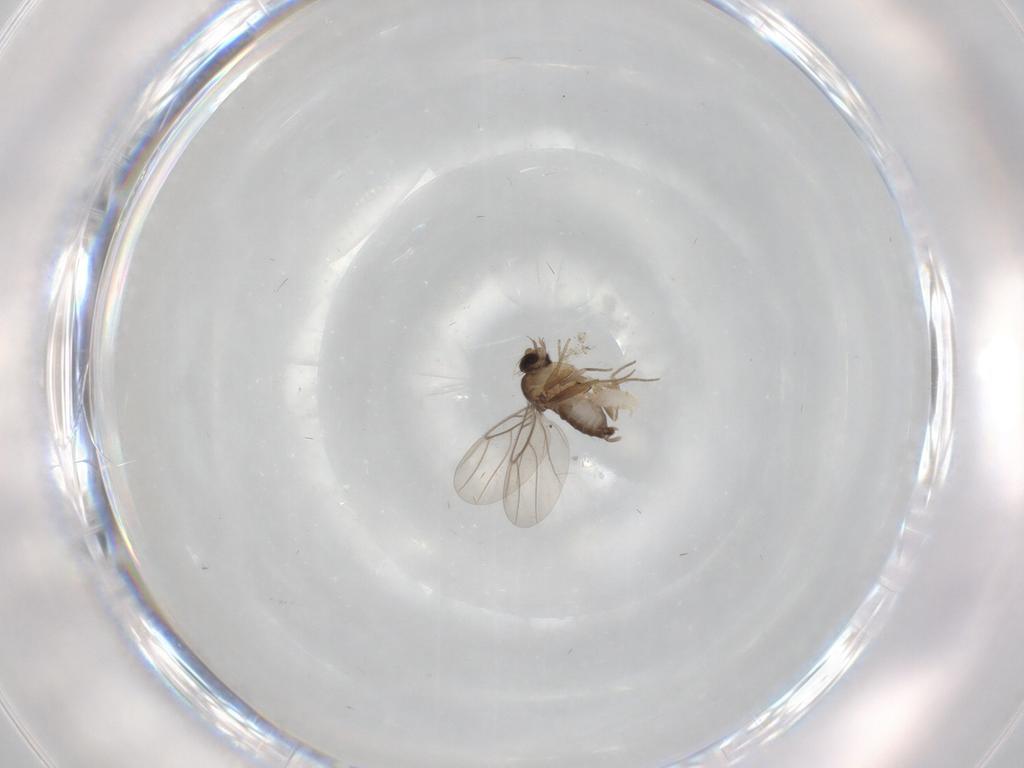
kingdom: Animalia
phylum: Arthropoda
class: Insecta
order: Diptera
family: Phoridae
